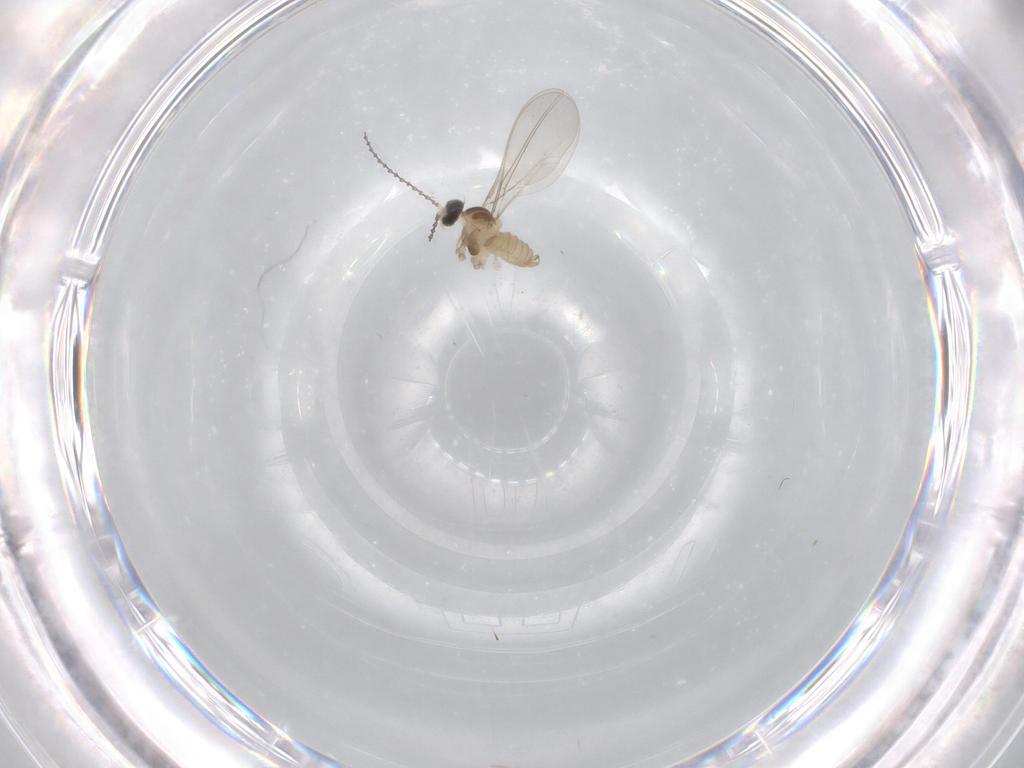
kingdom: Animalia
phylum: Arthropoda
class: Insecta
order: Diptera
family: Cecidomyiidae
